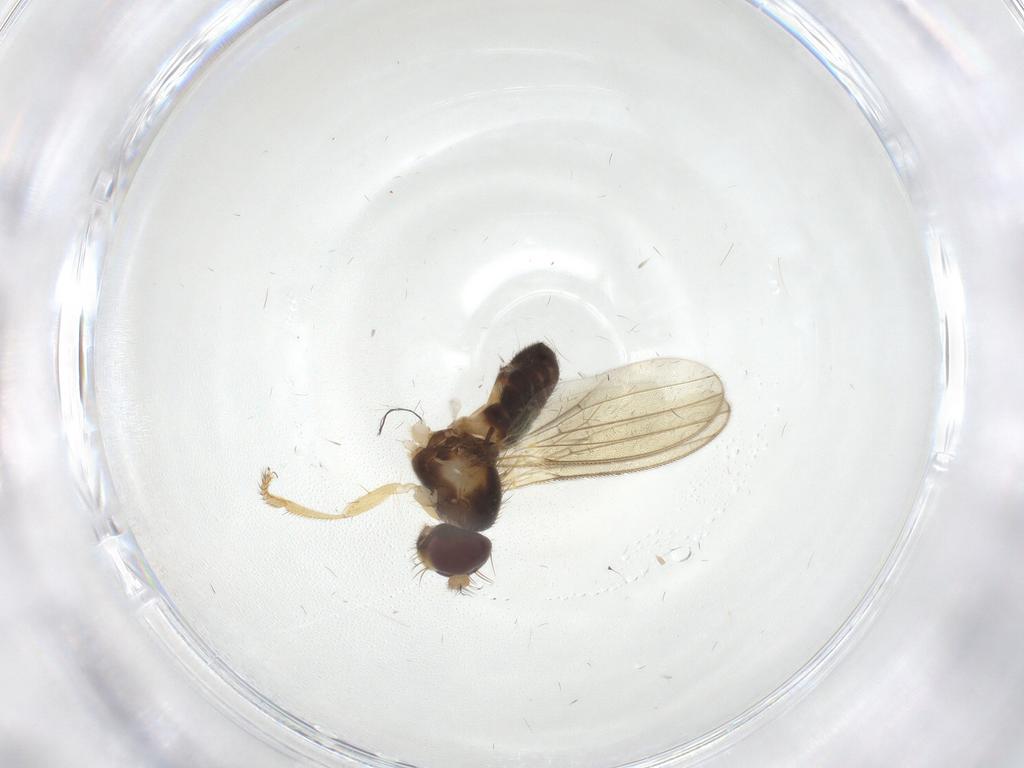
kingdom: Animalia
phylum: Arthropoda
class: Insecta
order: Diptera
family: Periscelididae
